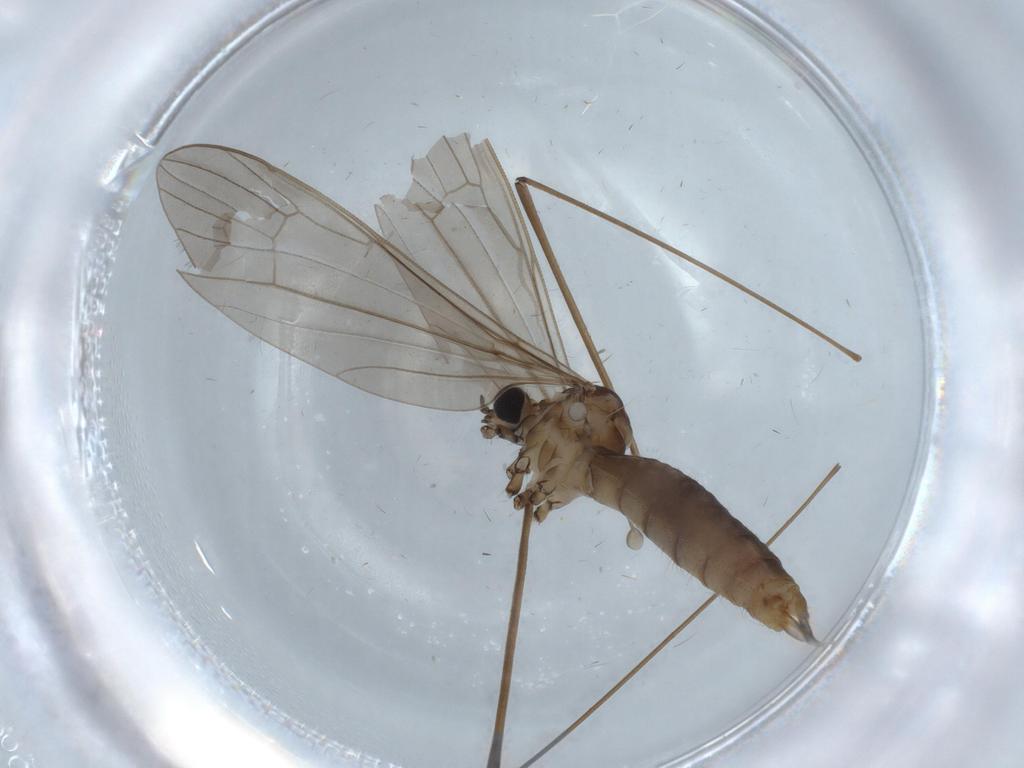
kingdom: Animalia
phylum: Arthropoda
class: Insecta
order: Diptera
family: Limoniidae
